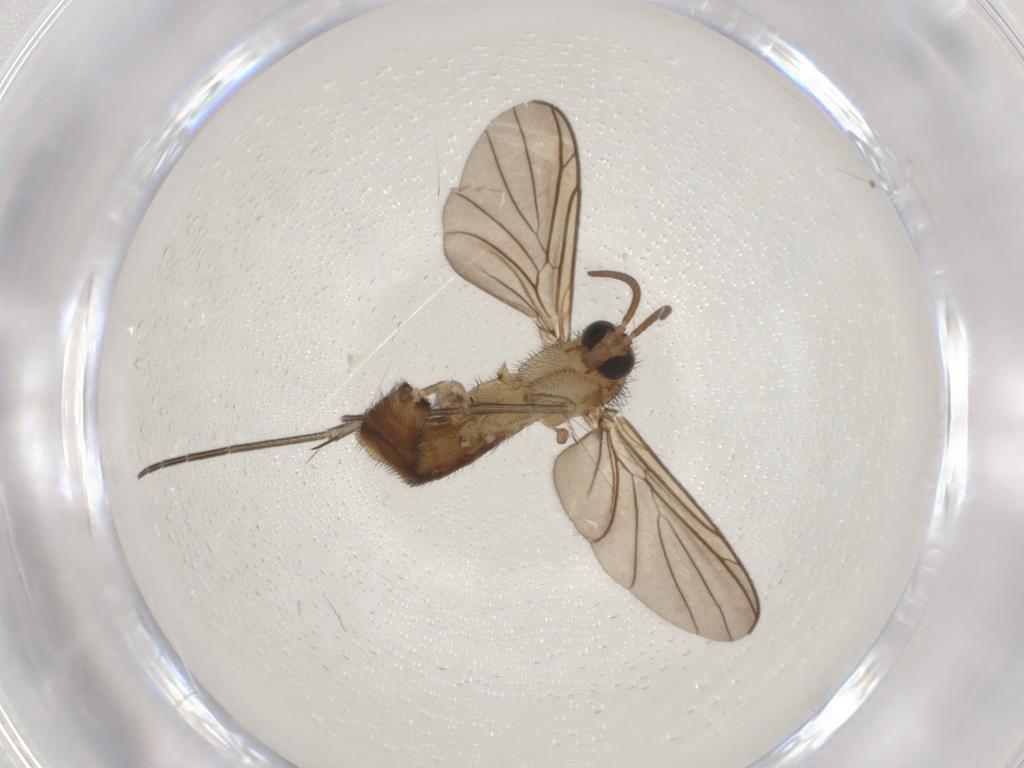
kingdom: Animalia
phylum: Arthropoda
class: Insecta
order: Diptera
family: Keroplatidae
